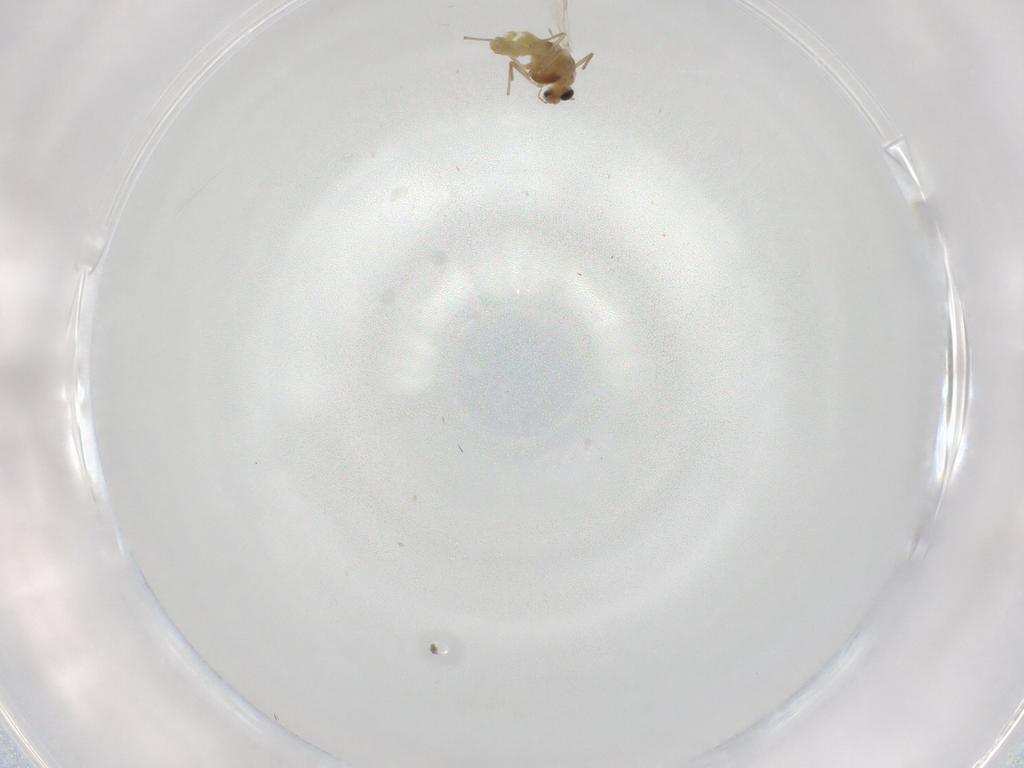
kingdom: Animalia
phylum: Arthropoda
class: Insecta
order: Diptera
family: Chironomidae
